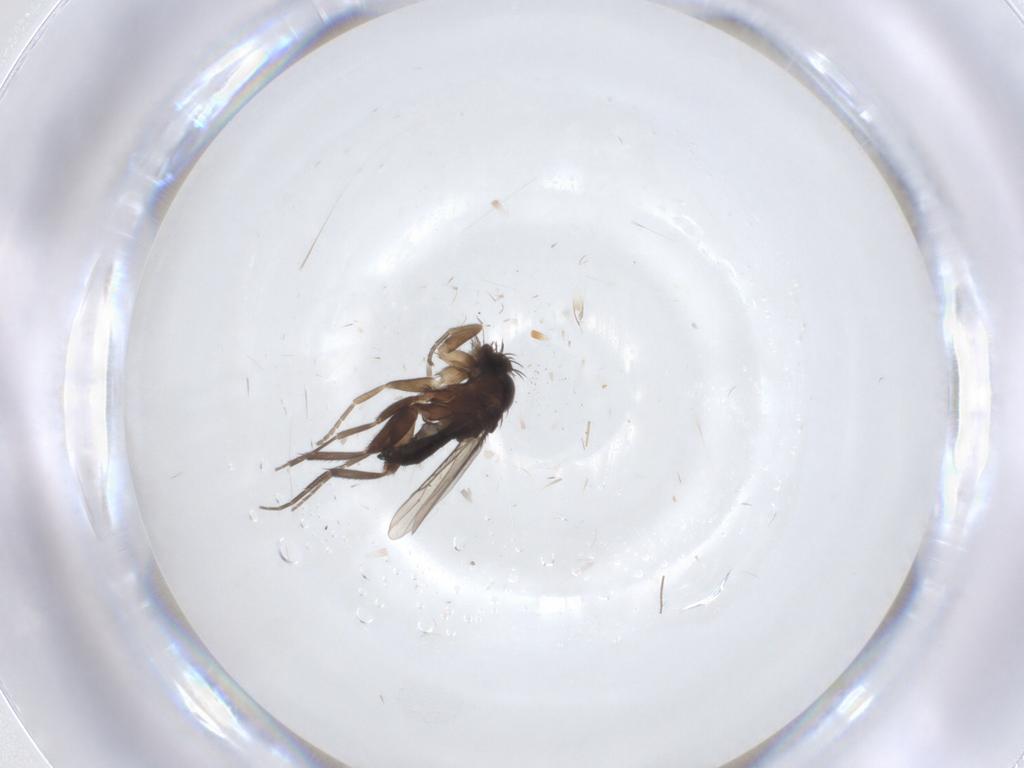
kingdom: Animalia
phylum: Arthropoda
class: Insecta
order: Diptera
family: Phoridae
